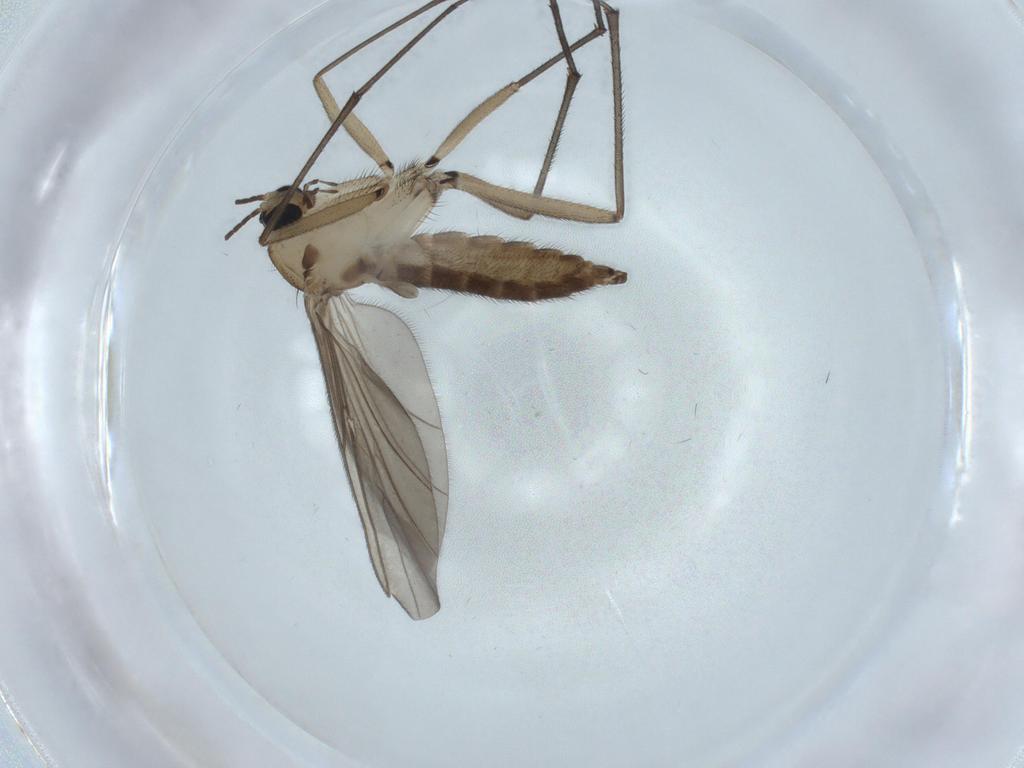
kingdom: Animalia
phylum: Arthropoda
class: Insecta
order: Diptera
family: Sciaridae
